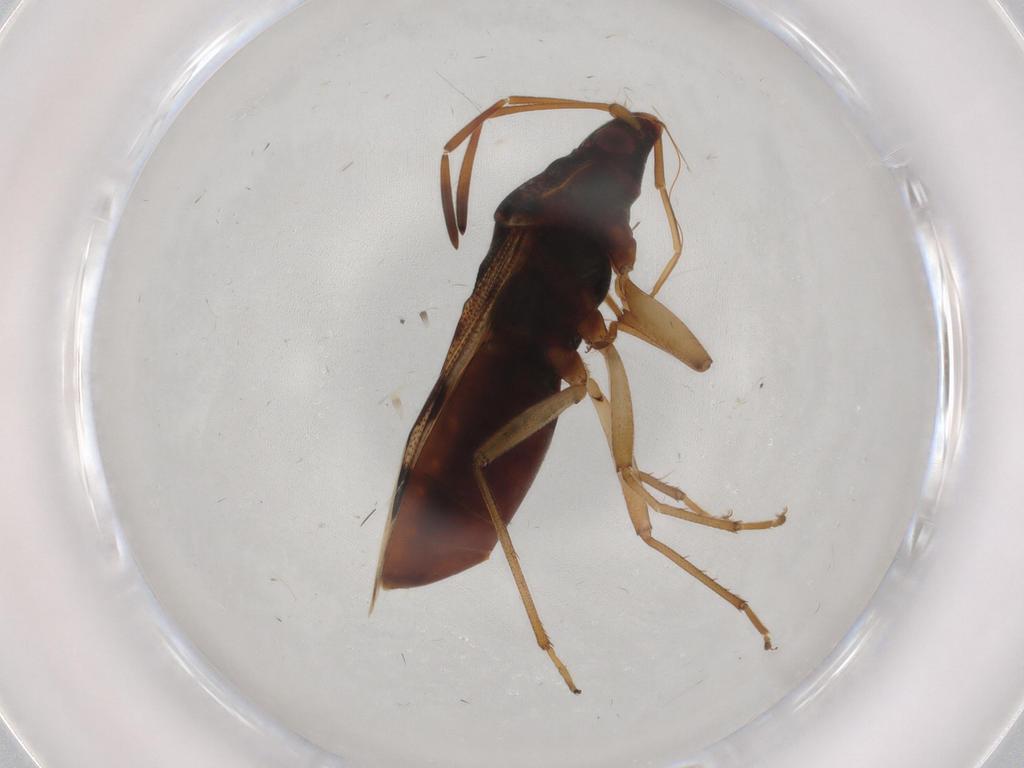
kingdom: Animalia
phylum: Arthropoda
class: Insecta
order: Hemiptera
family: Rhyparochromidae
